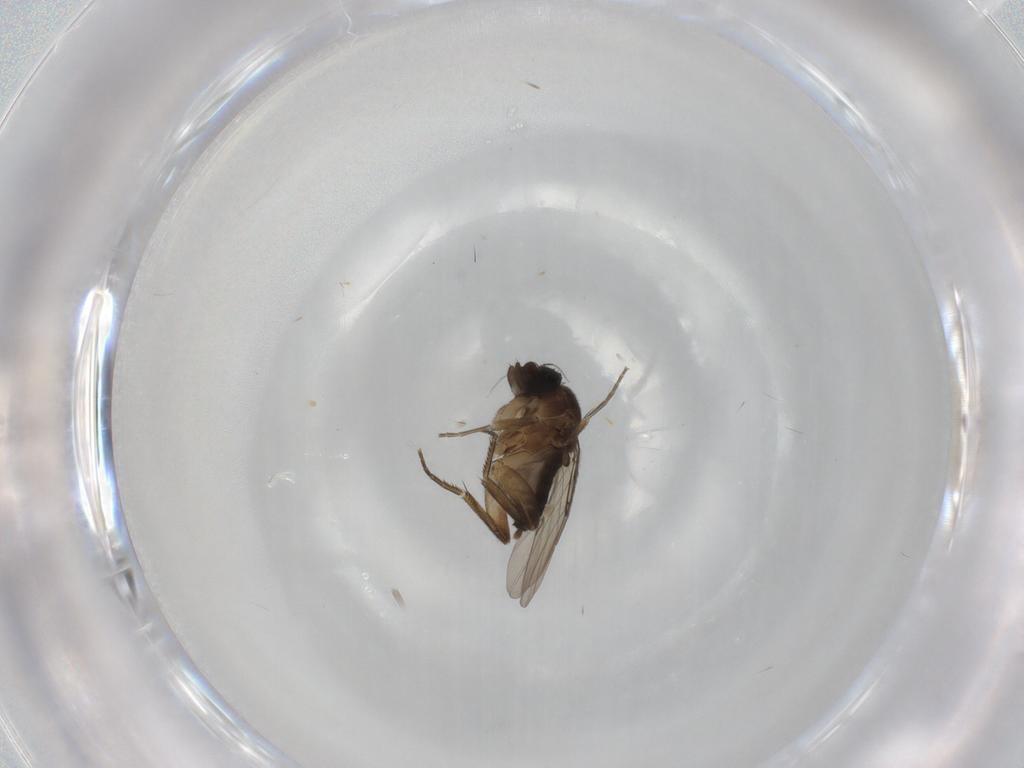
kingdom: Animalia
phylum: Arthropoda
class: Insecta
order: Diptera
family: Phoridae
